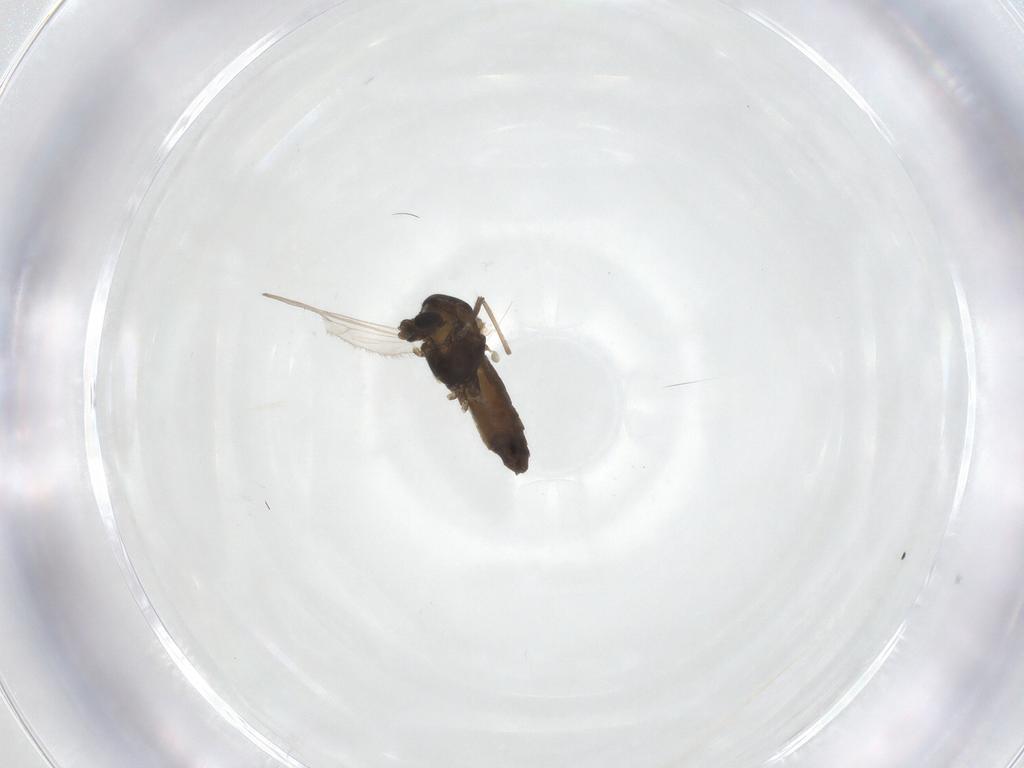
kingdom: Animalia
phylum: Arthropoda
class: Insecta
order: Diptera
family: Chironomidae
